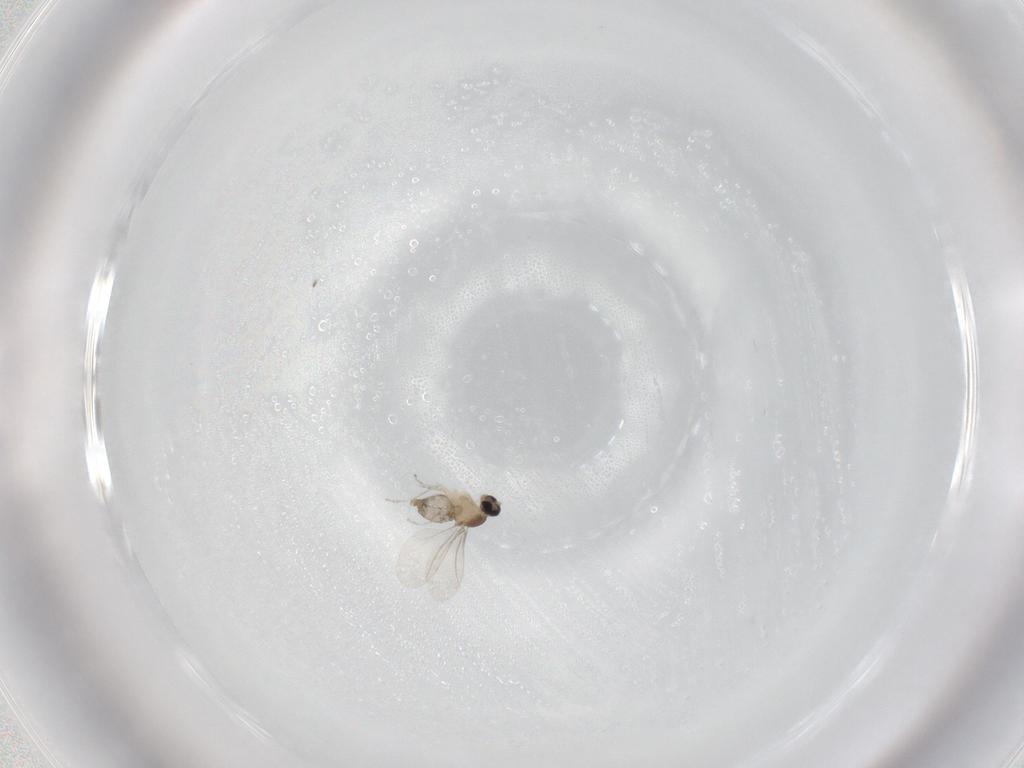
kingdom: Animalia
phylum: Arthropoda
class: Insecta
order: Diptera
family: Cecidomyiidae
